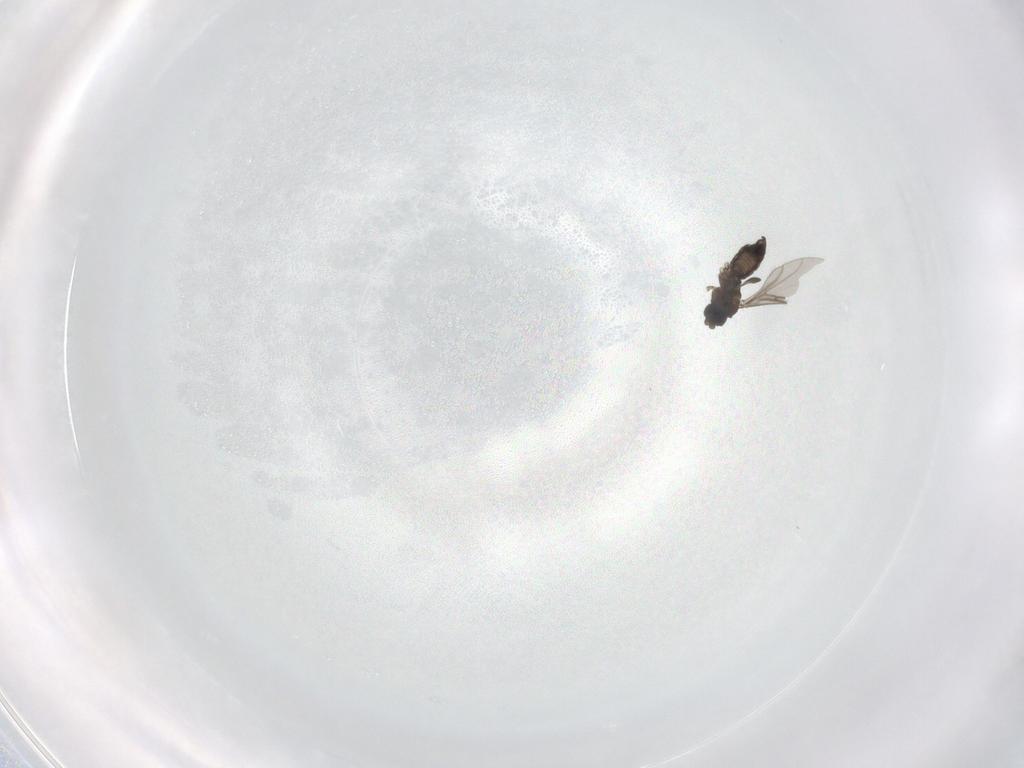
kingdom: Animalia
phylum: Arthropoda
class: Insecta
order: Diptera
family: Sciaridae
